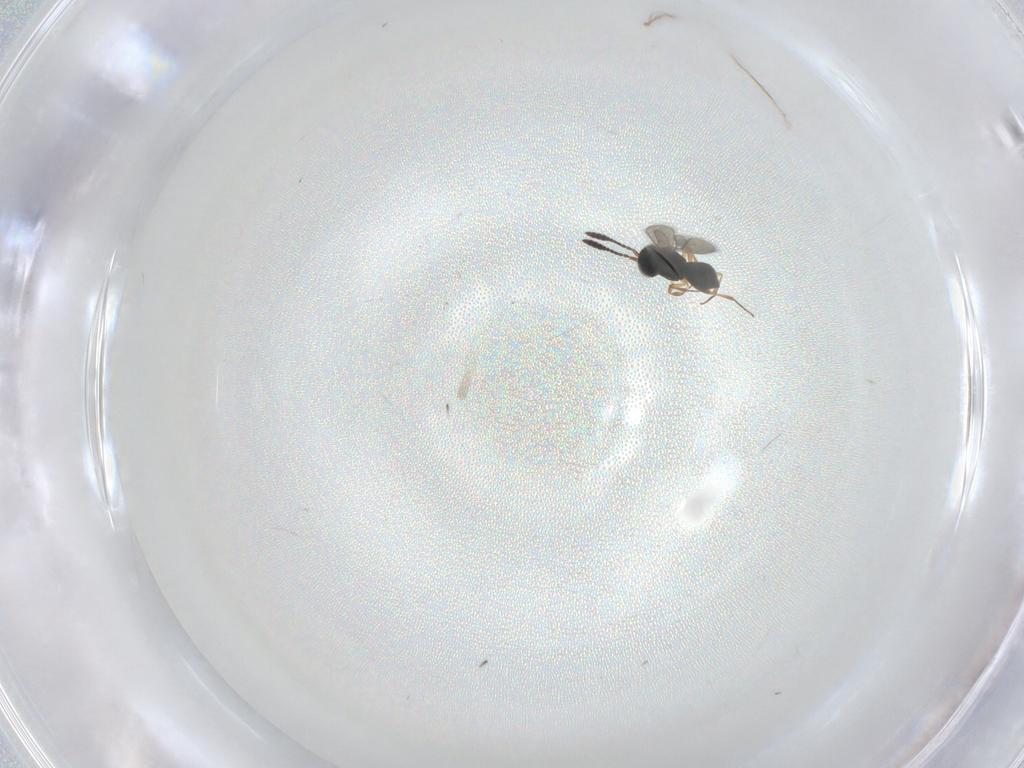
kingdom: Animalia
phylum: Arthropoda
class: Insecta
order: Hymenoptera
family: Scelionidae
